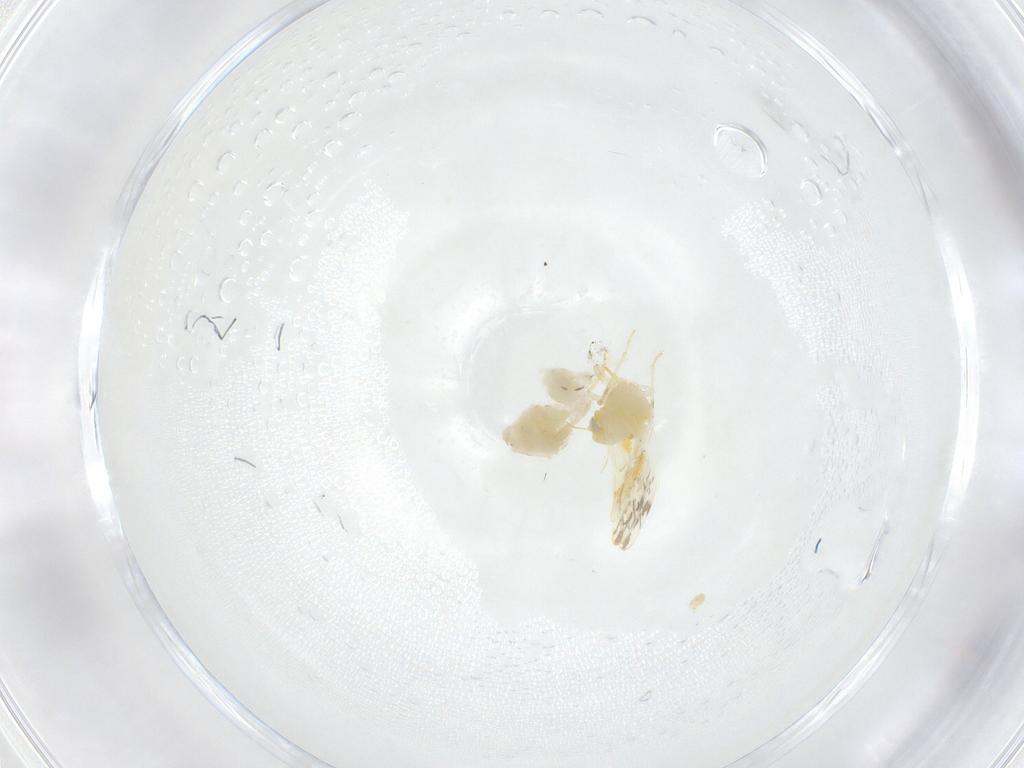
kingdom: Animalia
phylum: Arthropoda
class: Insecta
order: Hemiptera
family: Aleyrodidae
